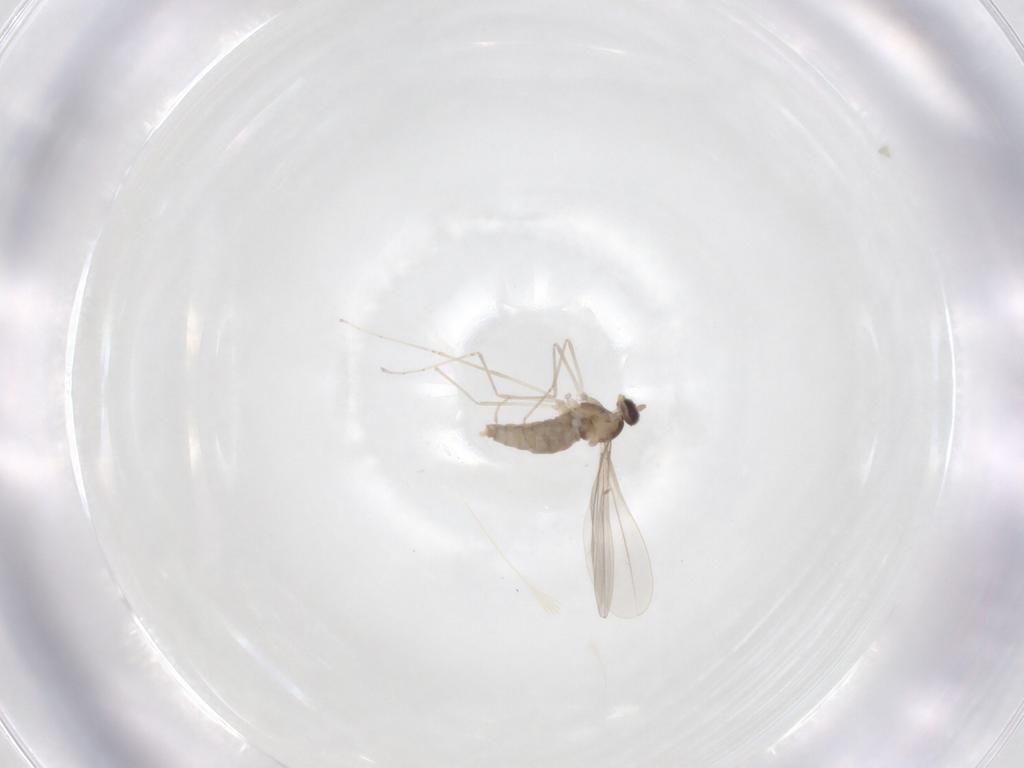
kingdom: Animalia
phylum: Arthropoda
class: Insecta
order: Diptera
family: Cecidomyiidae
